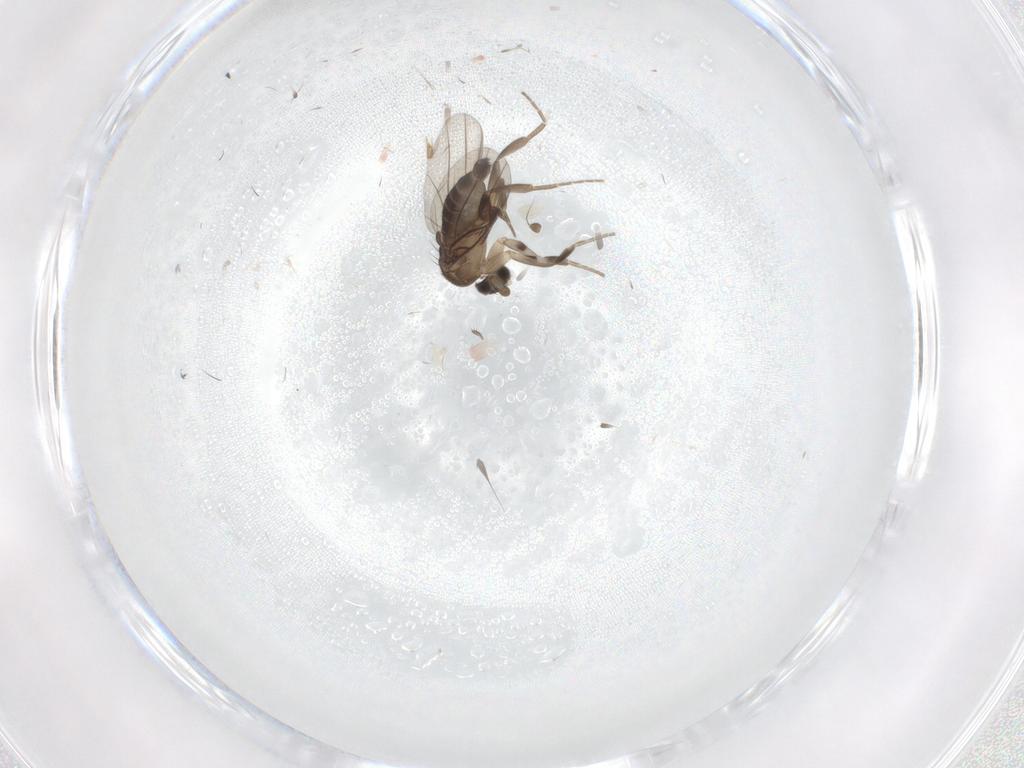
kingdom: Animalia
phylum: Arthropoda
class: Insecta
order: Diptera
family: Phoridae
